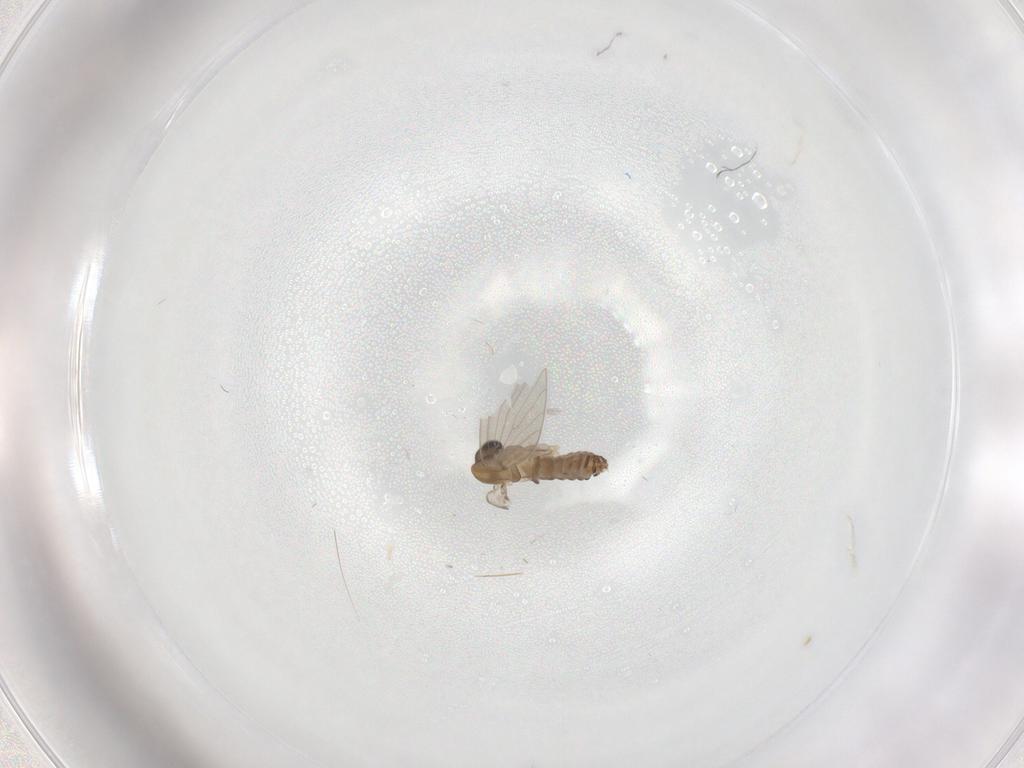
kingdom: Animalia
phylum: Arthropoda
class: Insecta
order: Diptera
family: Psychodidae
